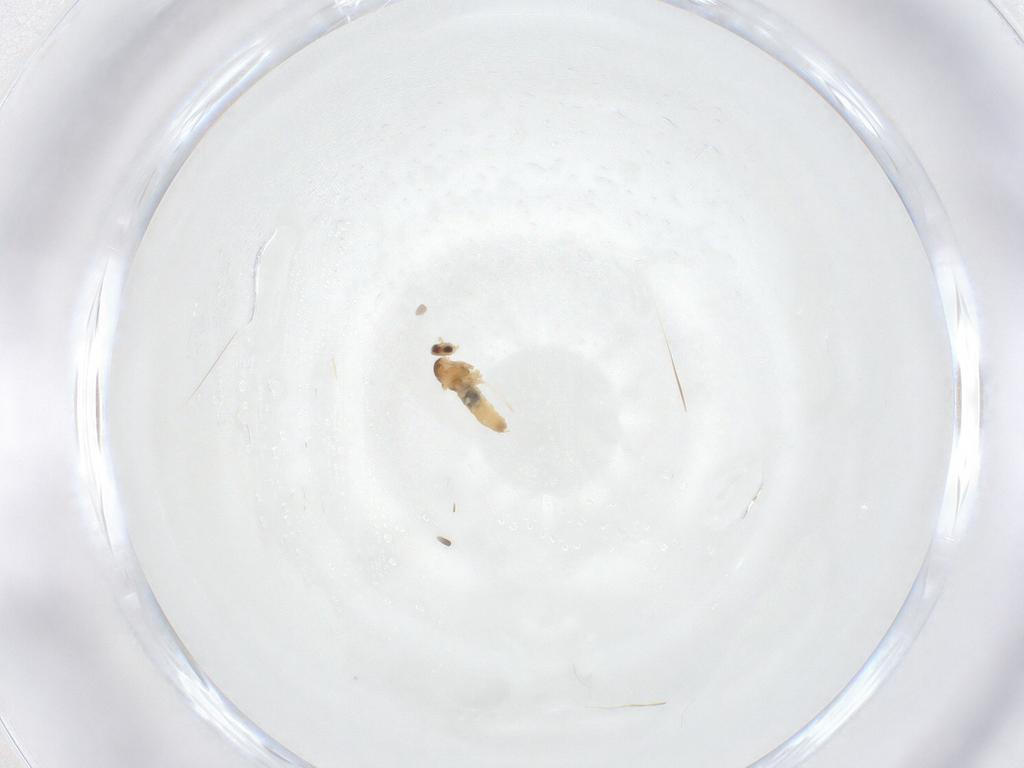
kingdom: Animalia
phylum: Arthropoda
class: Insecta
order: Diptera
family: Cecidomyiidae
